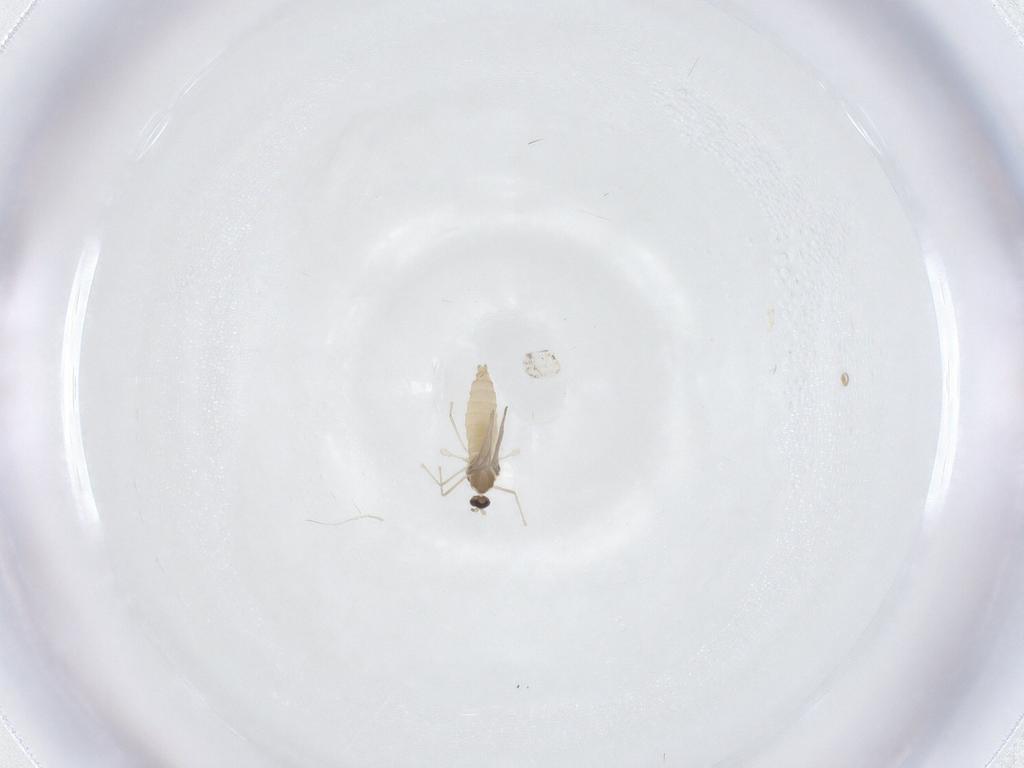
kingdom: Animalia
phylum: Arthropoda
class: Insecta
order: Diptera
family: Cecidomyiidae
